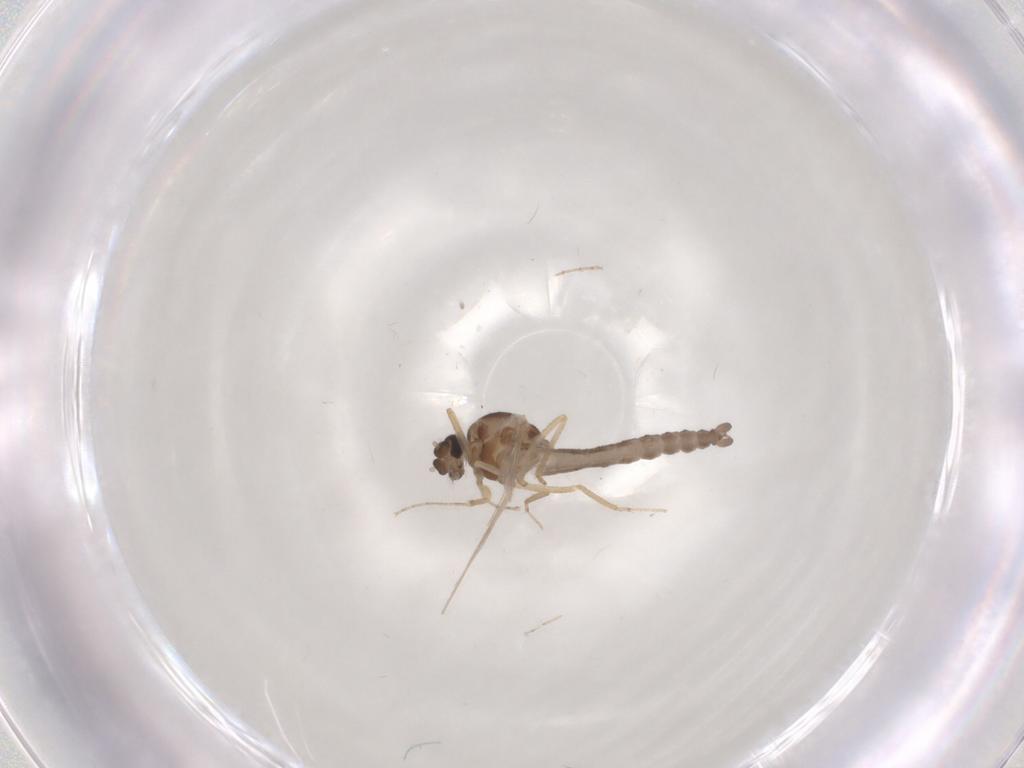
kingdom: Animalia
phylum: Arthropoda
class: Insecta
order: Diptera
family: Ceratopogonidae
